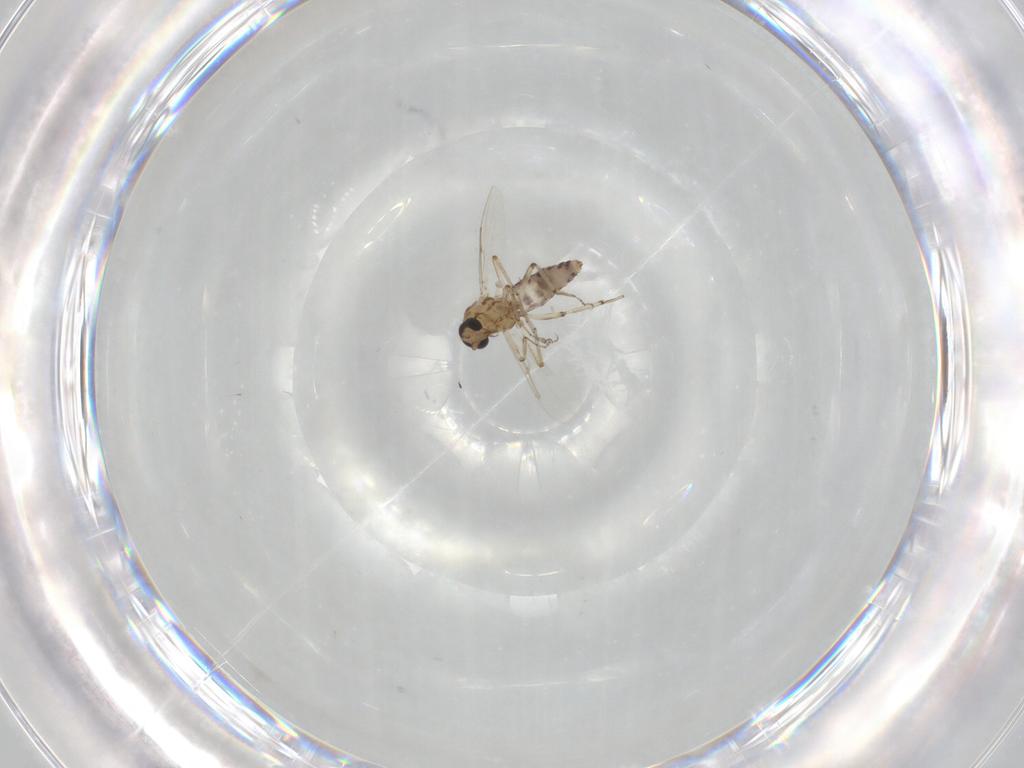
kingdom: Animalia
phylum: Arthropoda
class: Insecta
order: Diptera
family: Ceratopogonidae
